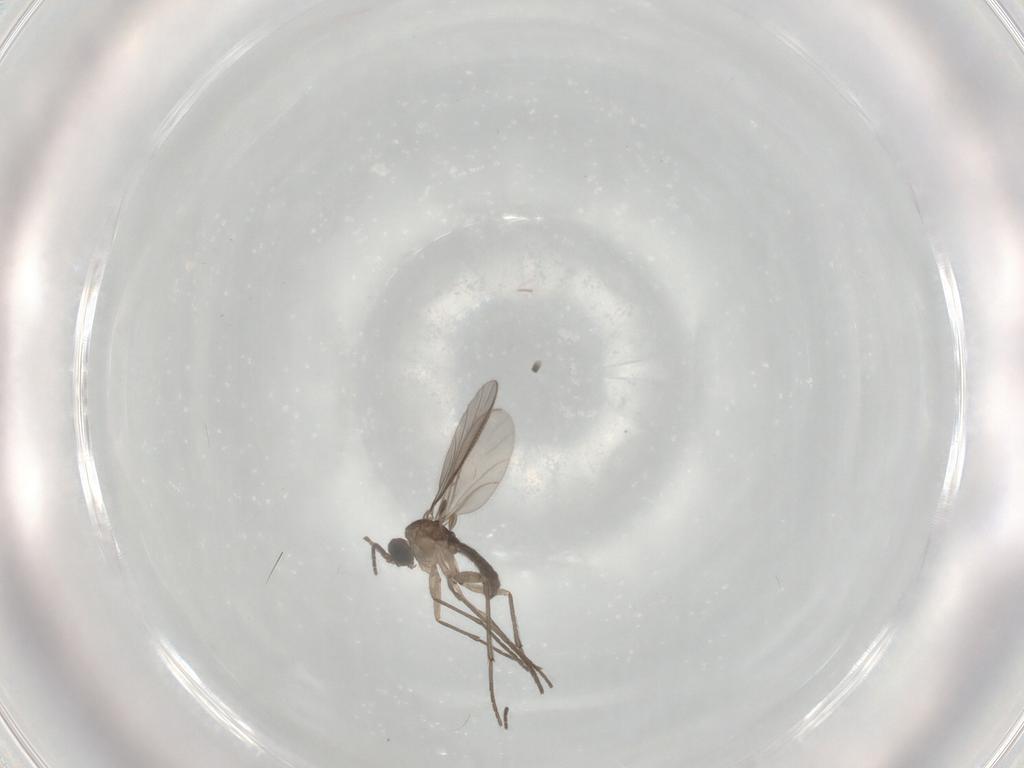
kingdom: Animalia
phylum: Arthropoda
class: Insecta
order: Diptera
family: Sciaridae
